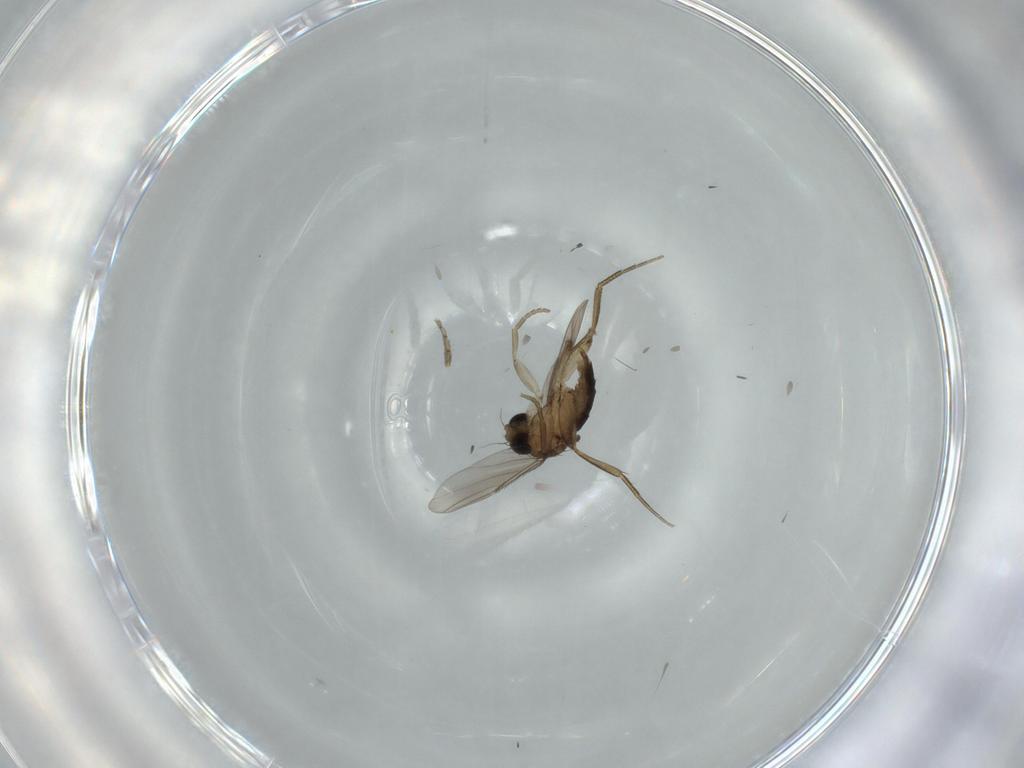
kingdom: Animalia
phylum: Arthropoda
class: Insecta
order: Diptera
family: Phoridae
